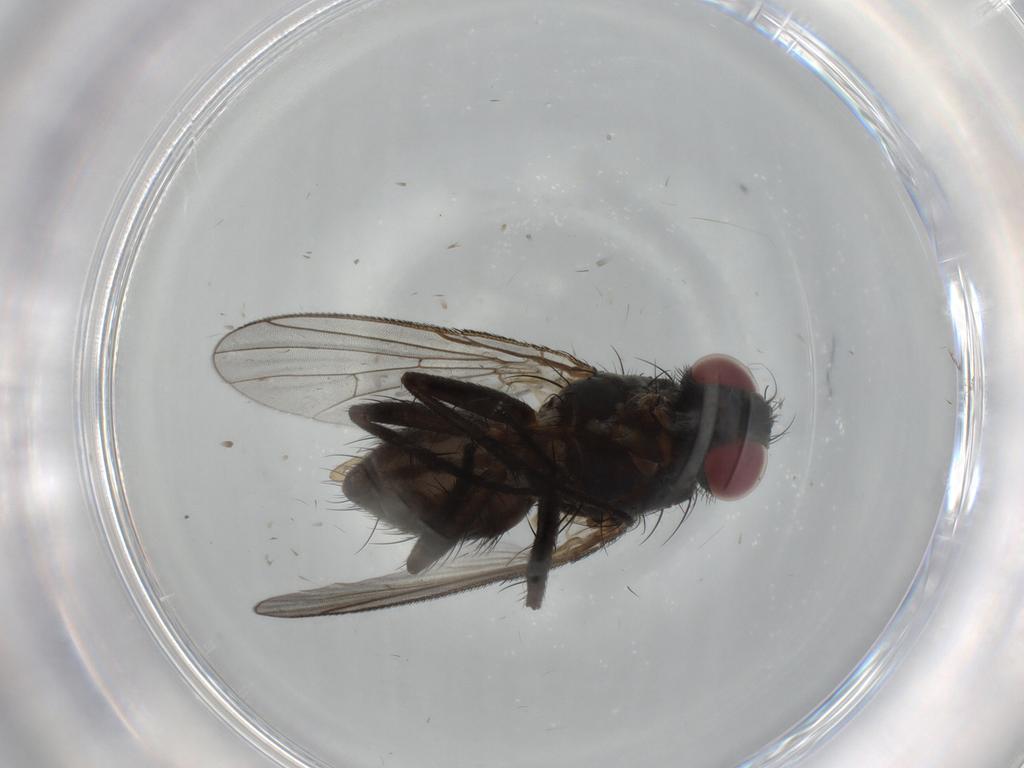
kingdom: Animalia
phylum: Arthropoda
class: Insecta
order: Diptera
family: Muscidae
